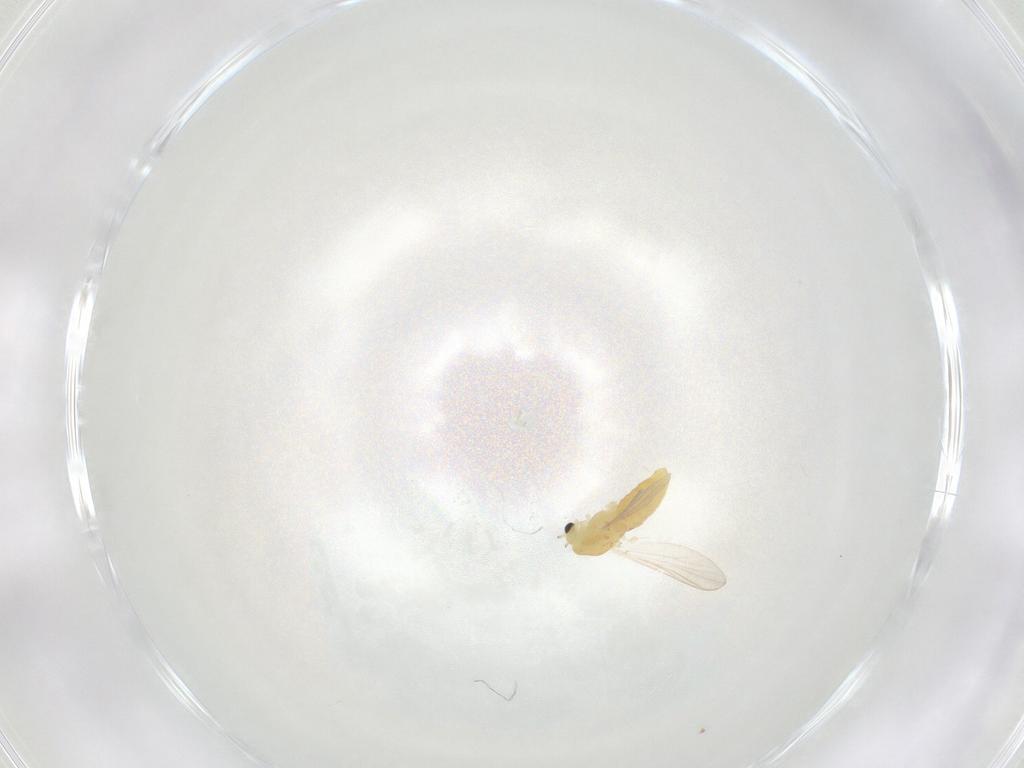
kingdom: Animalia
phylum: Arthropoda
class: Insecta
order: Diptera
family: Chironomidae
